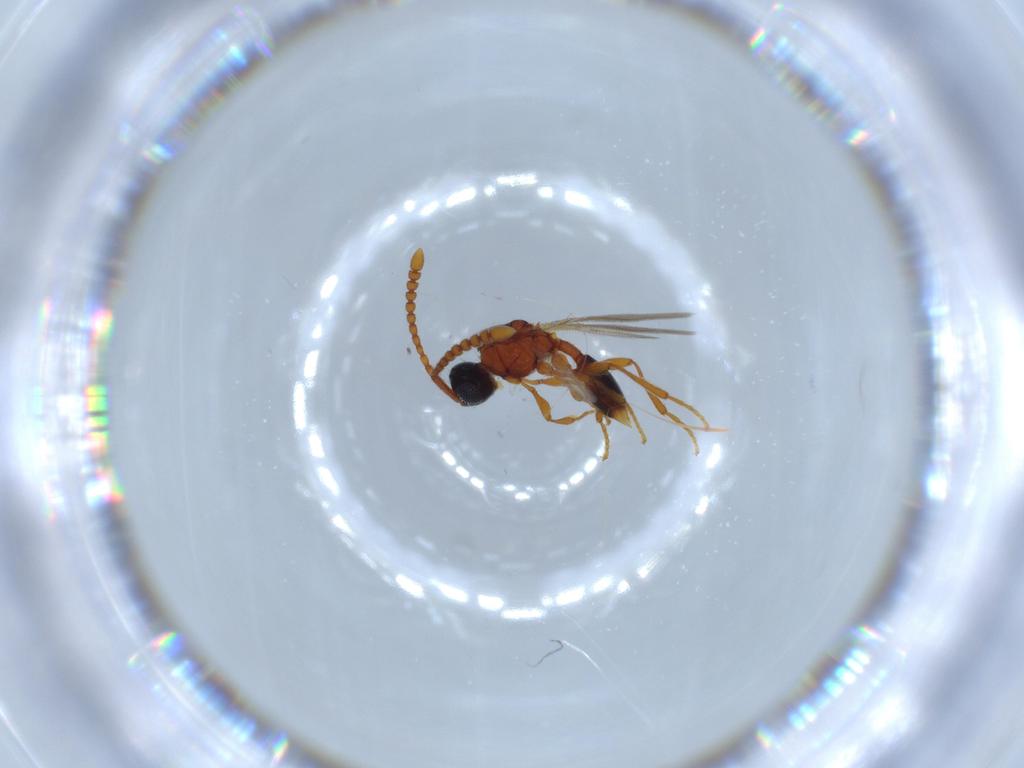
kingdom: Animalia
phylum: Arthropoda
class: Insecta
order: Hymenoptera
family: Diapriidae
